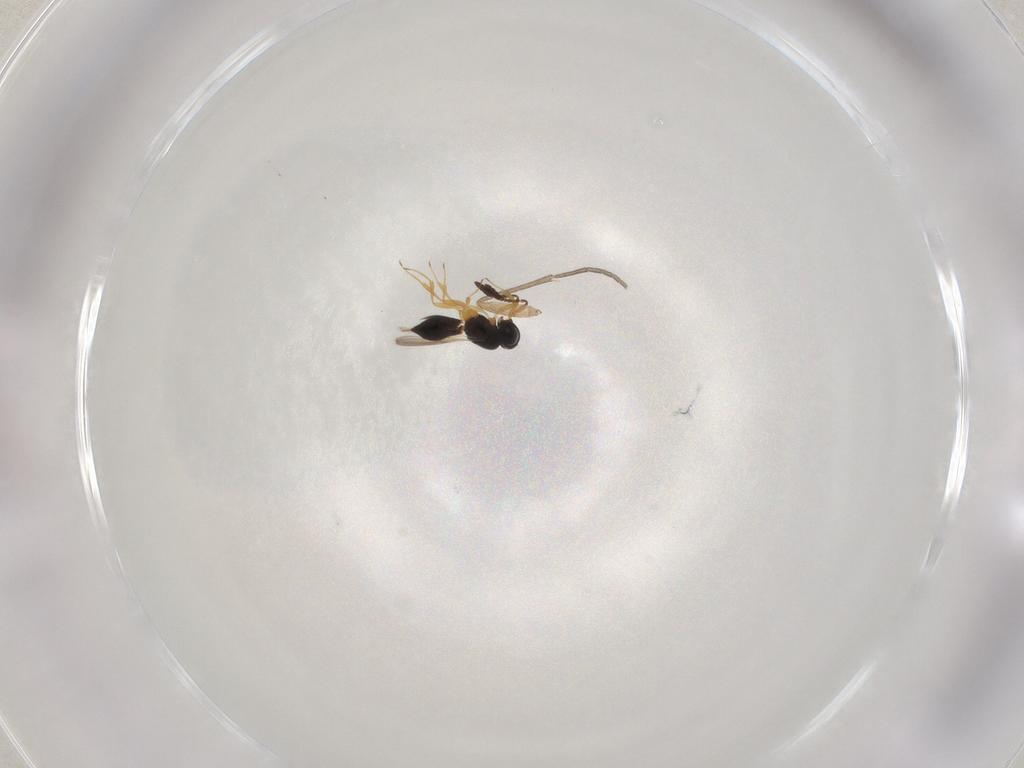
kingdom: Animalia
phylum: Arthropoda
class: Insecta
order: Hymenoptera
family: Scelionidae
